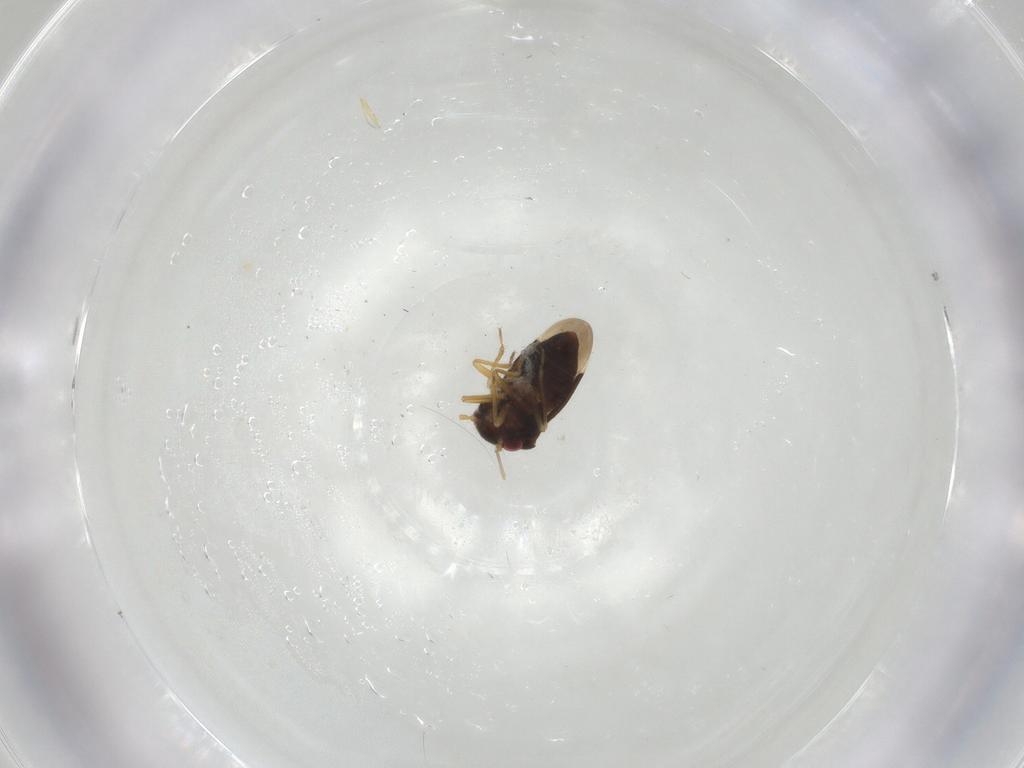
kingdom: Animalia
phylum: Arthropoda
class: Insecta
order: Hemiptera
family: Schizopteridae
